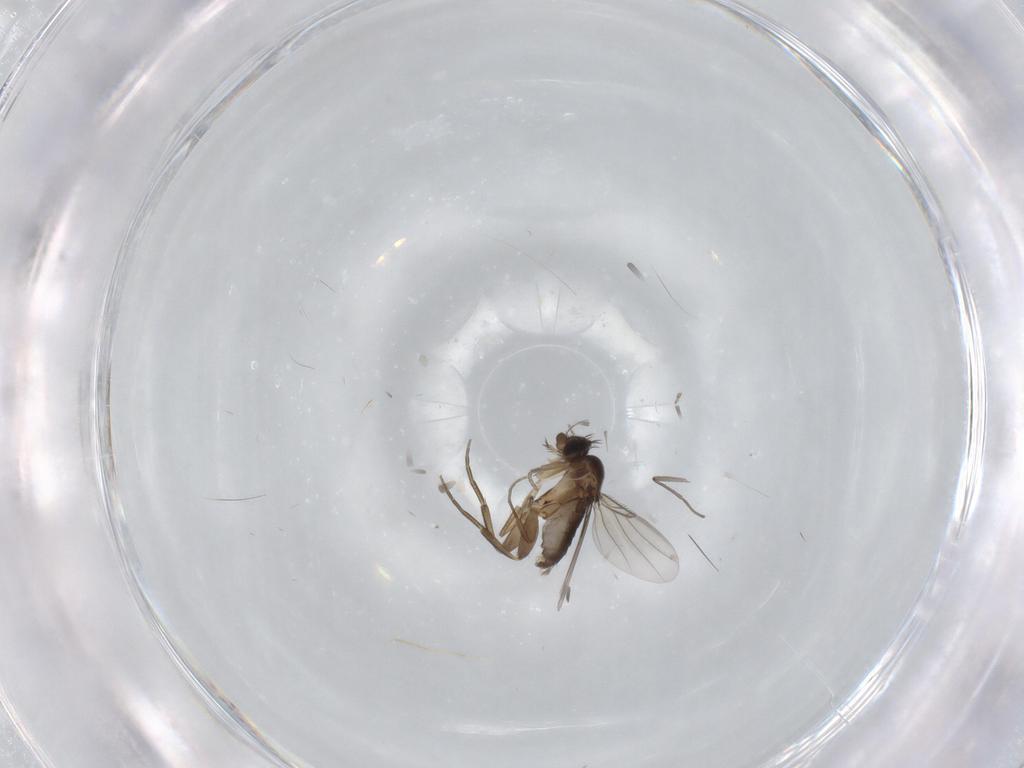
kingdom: Animalia
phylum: Arthropoda
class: Insecta
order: Diptera
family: Phoridae
